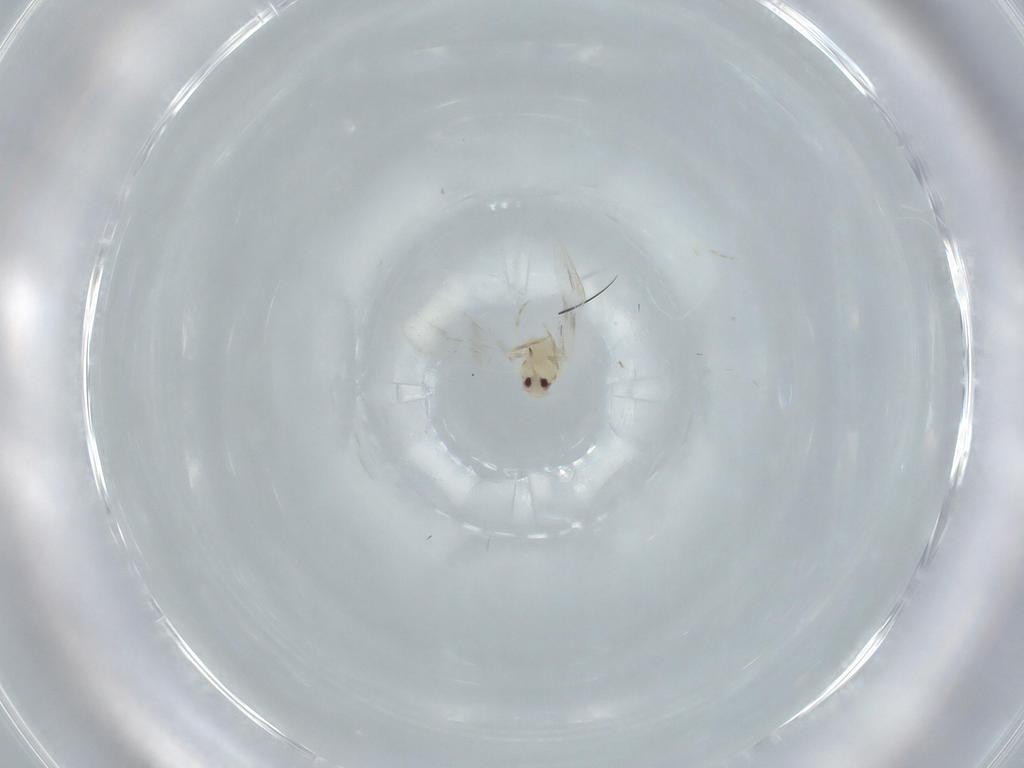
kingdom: Animalia
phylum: Arthropoda
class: Insecta
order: Hemiptera
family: Aleyrodidae
